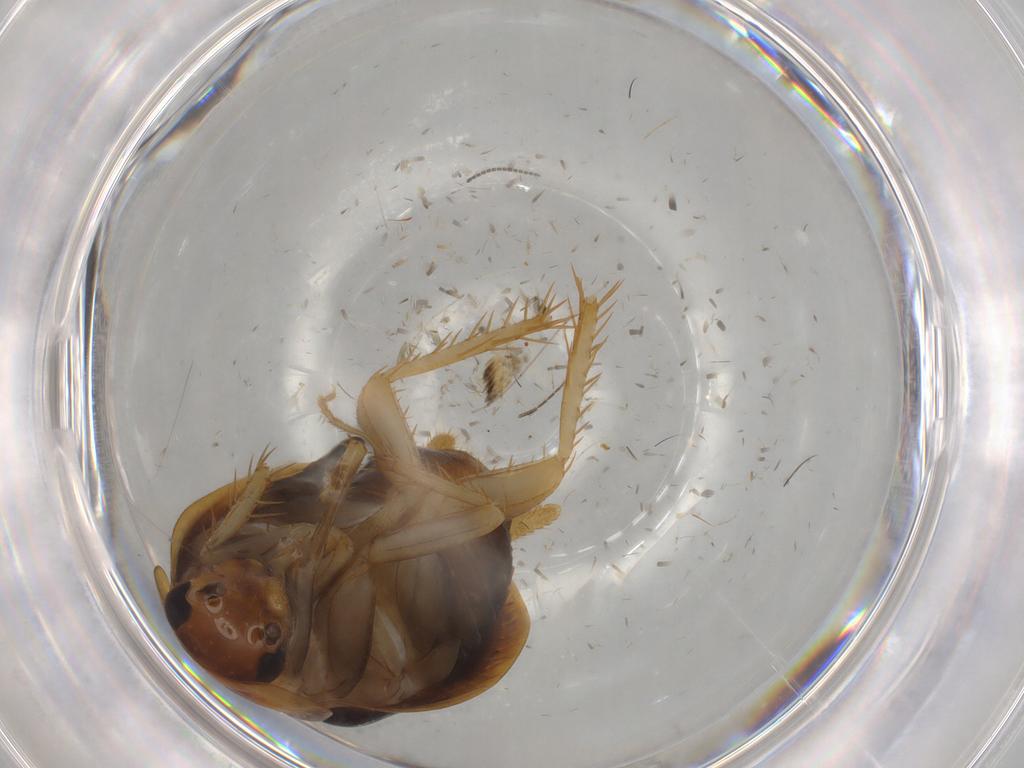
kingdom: Animalia
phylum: Arthropoda
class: Insecta
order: Blattodea
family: Tryonicidae
